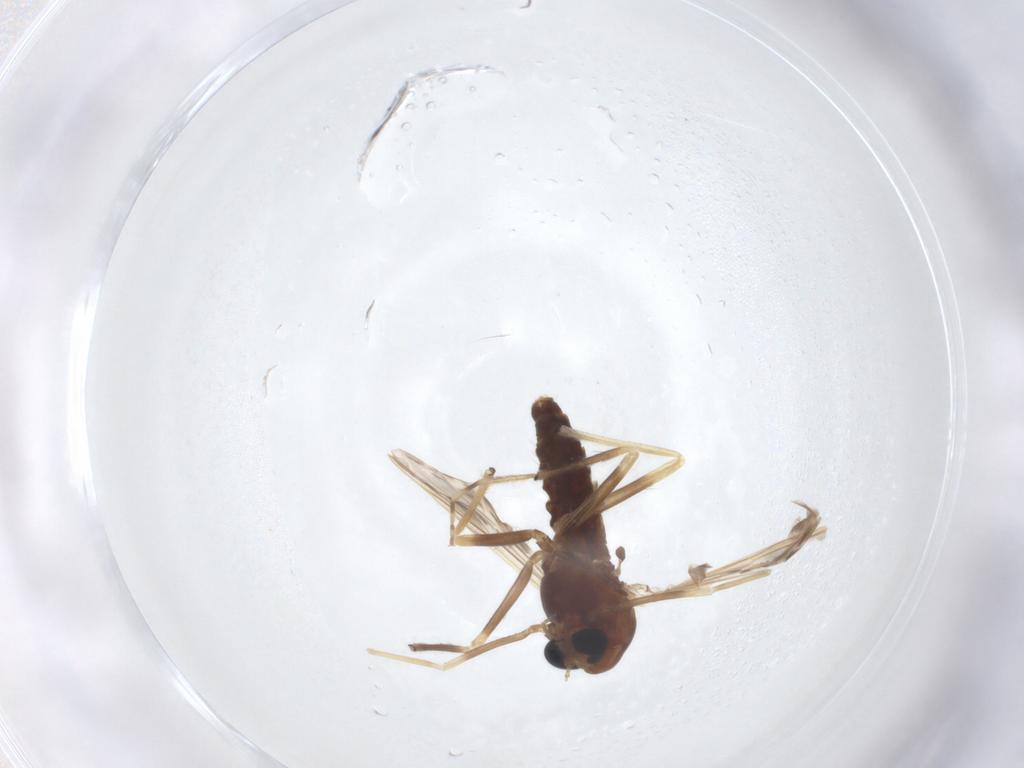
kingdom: Animalia
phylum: Arthropoda
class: Insecta
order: Diptera
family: Chironomidae
